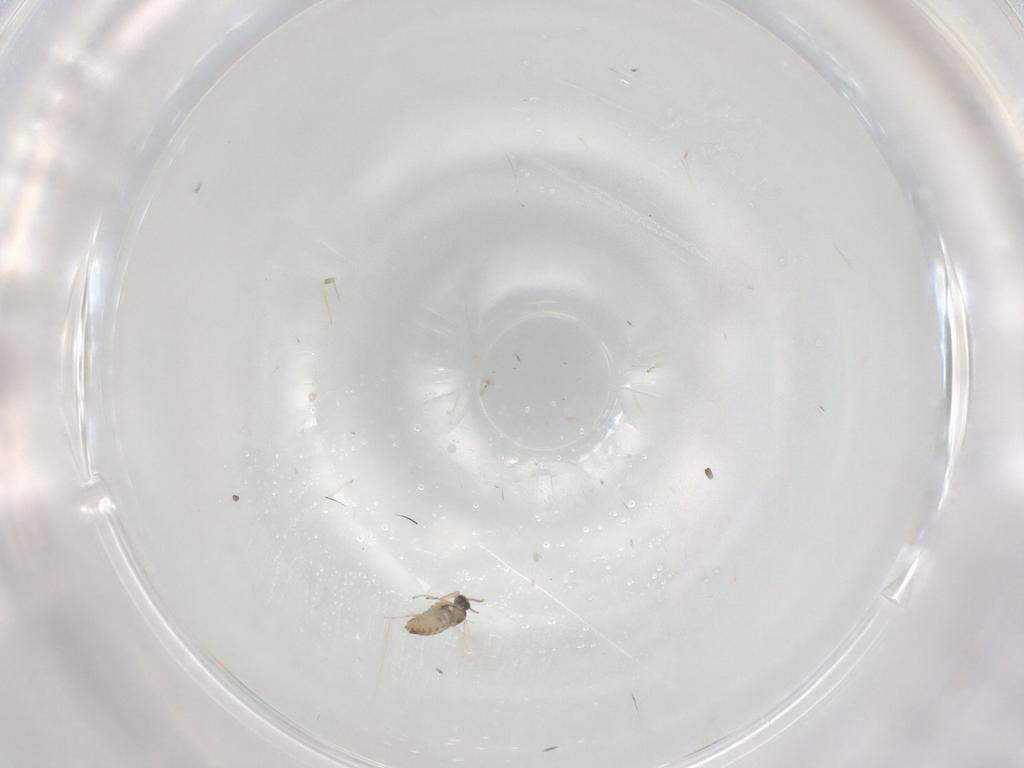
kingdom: Animalia
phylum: Arthropoda
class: Insecta
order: Diptera
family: Cecidomyiidae
